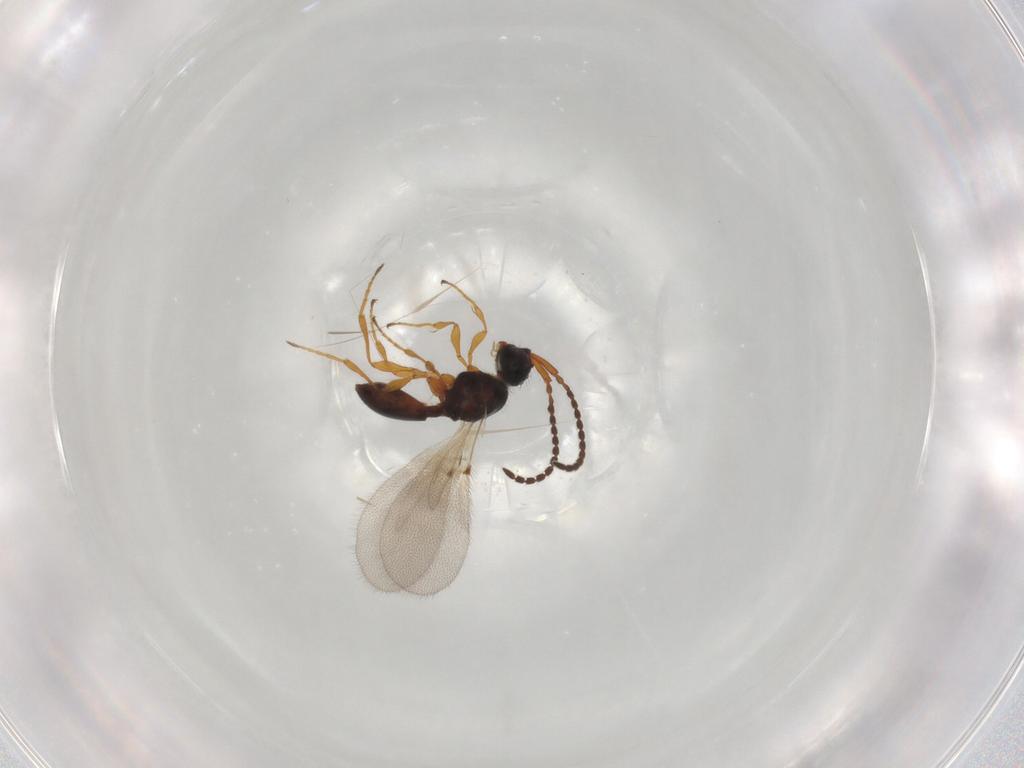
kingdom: Animalia
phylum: Arthropoda
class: Insecta
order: Hymenoptera
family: Diapriidae
